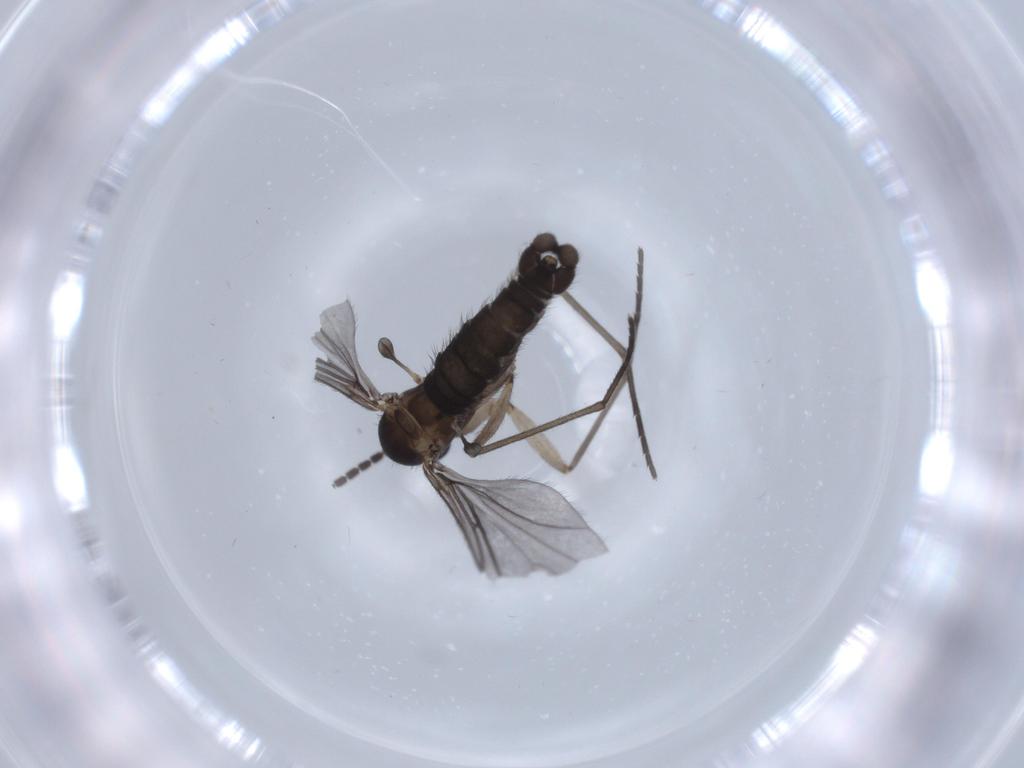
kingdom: Animalia
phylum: Arthropoda
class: Insecta
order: Diptera
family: Sciaridae
